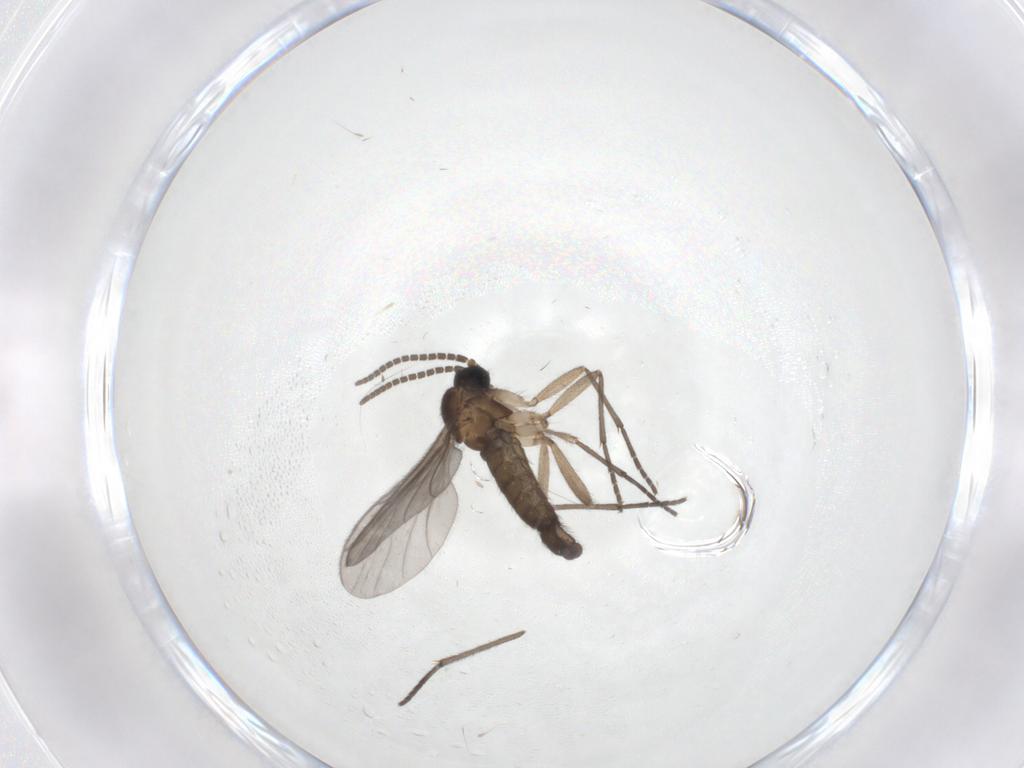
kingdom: Animalia
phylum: Arthropoda
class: Insecta
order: Diptera
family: Sciaridae
